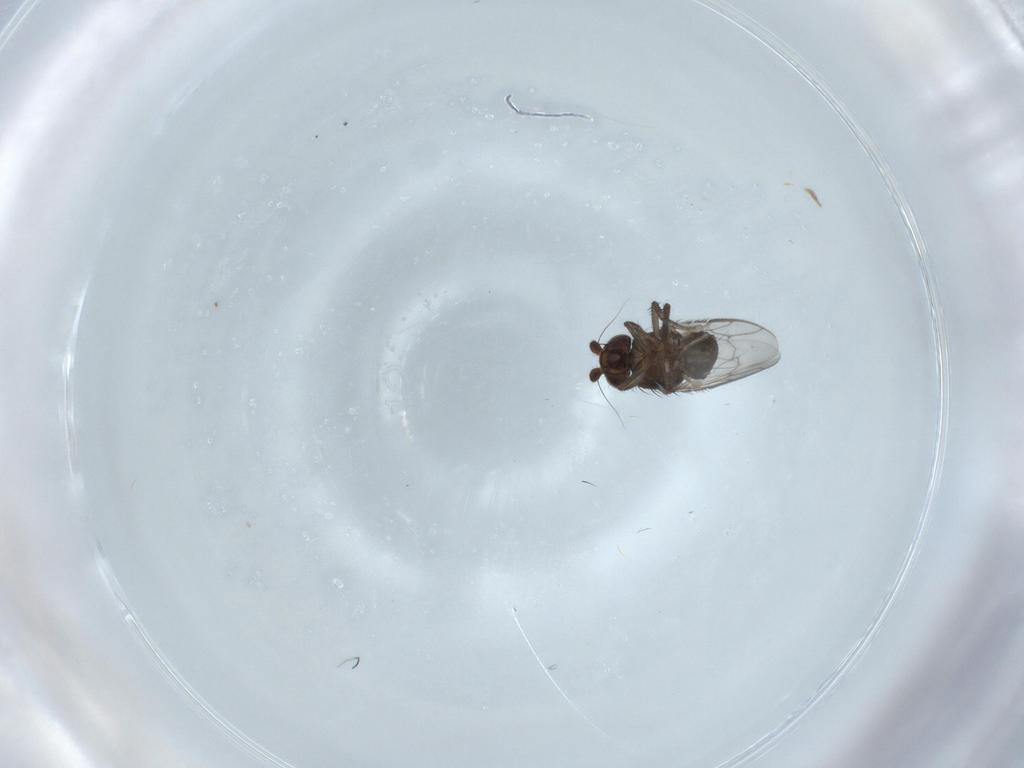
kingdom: Animalia
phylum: Arthropoda
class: Insecta
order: Diptera
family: Sphaeroceridae
